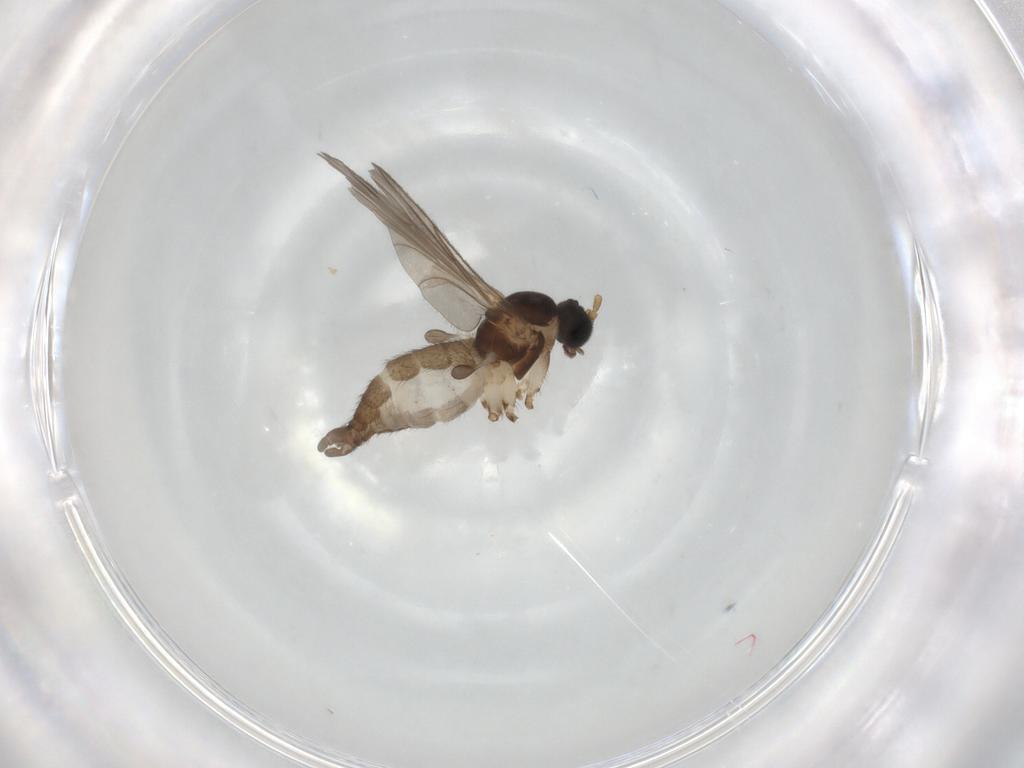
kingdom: Animalia
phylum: Arthropoda
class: Insecta
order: Diptera
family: Sciaridae
